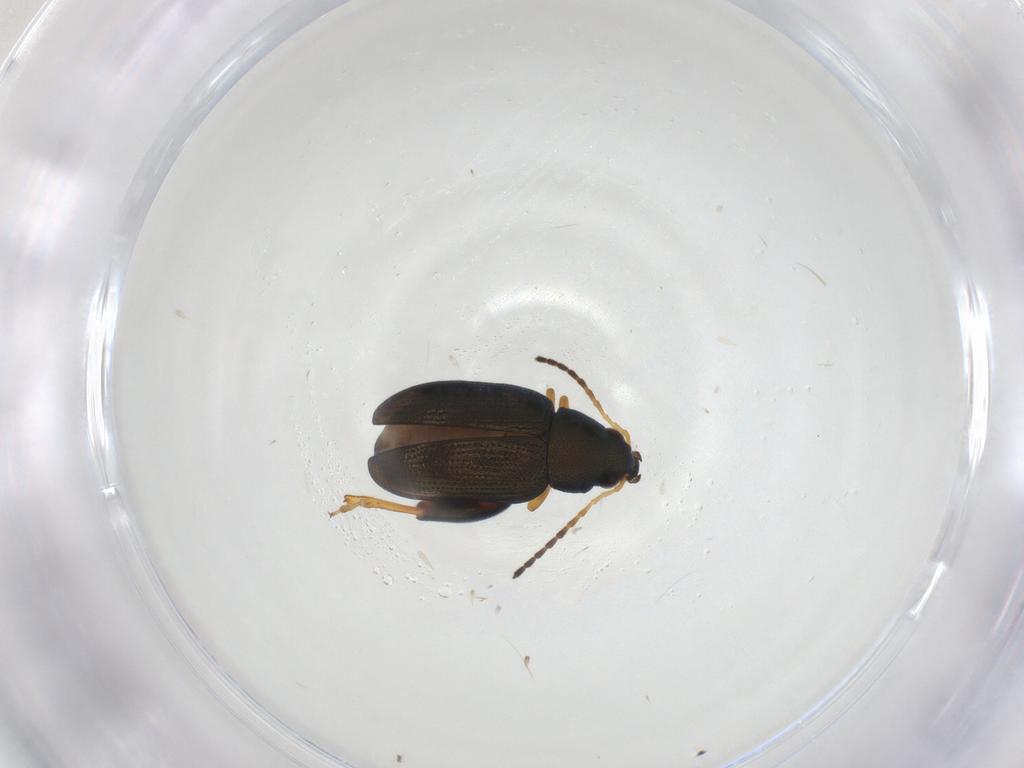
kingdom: Animalia
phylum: Arthropoda
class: Insecta
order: Coleoptera
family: Chrysomelidae
